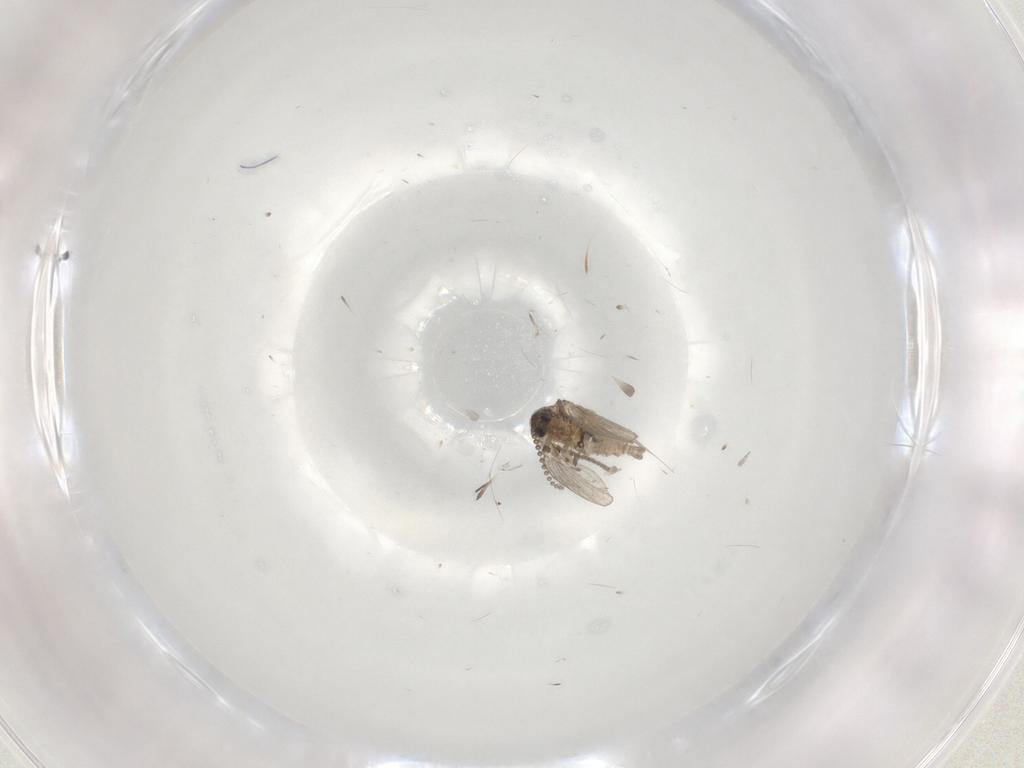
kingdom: Animalia
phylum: Arthropoda
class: Insecta
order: Diptera
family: Psychodidae
